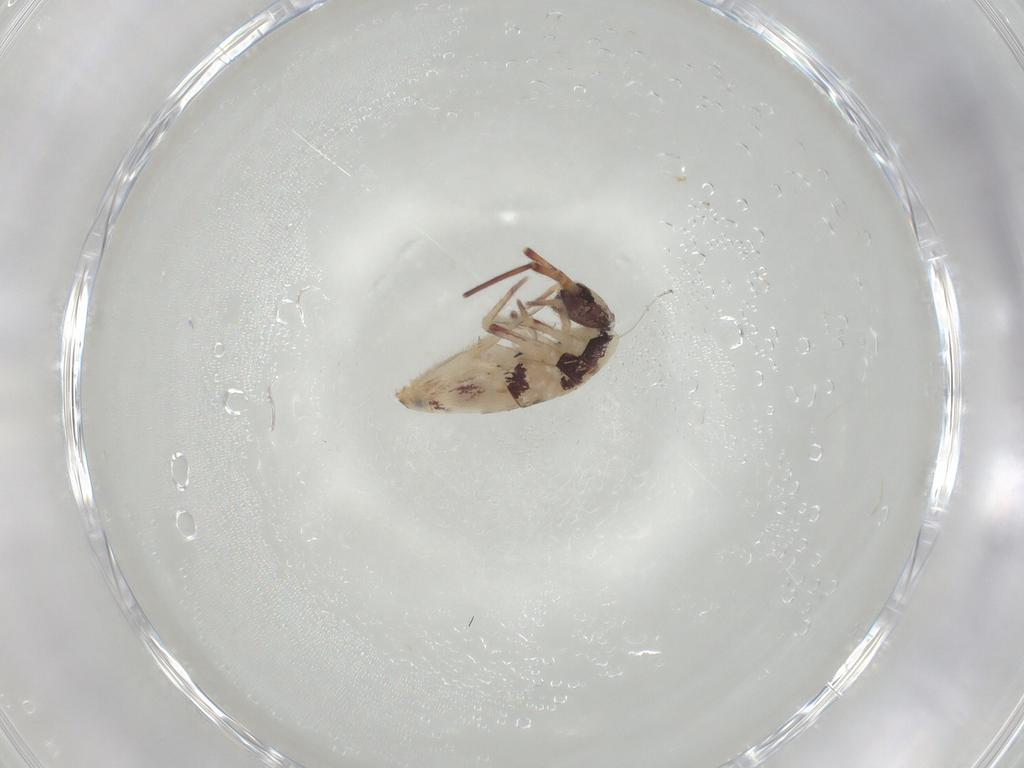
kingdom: Animalia
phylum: Arthropoda
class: Collembola
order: Entomobryomorpha
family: Entomobryidae
